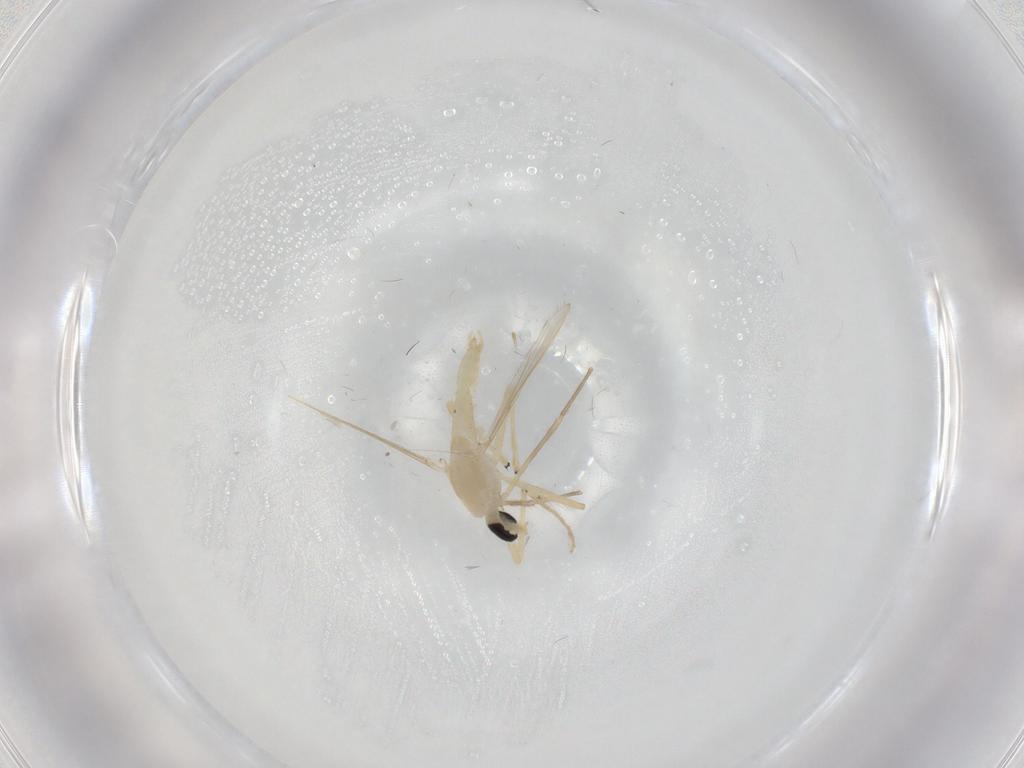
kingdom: Animalia
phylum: Arthropoda
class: Insecta
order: Diptera
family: Chironomidae
